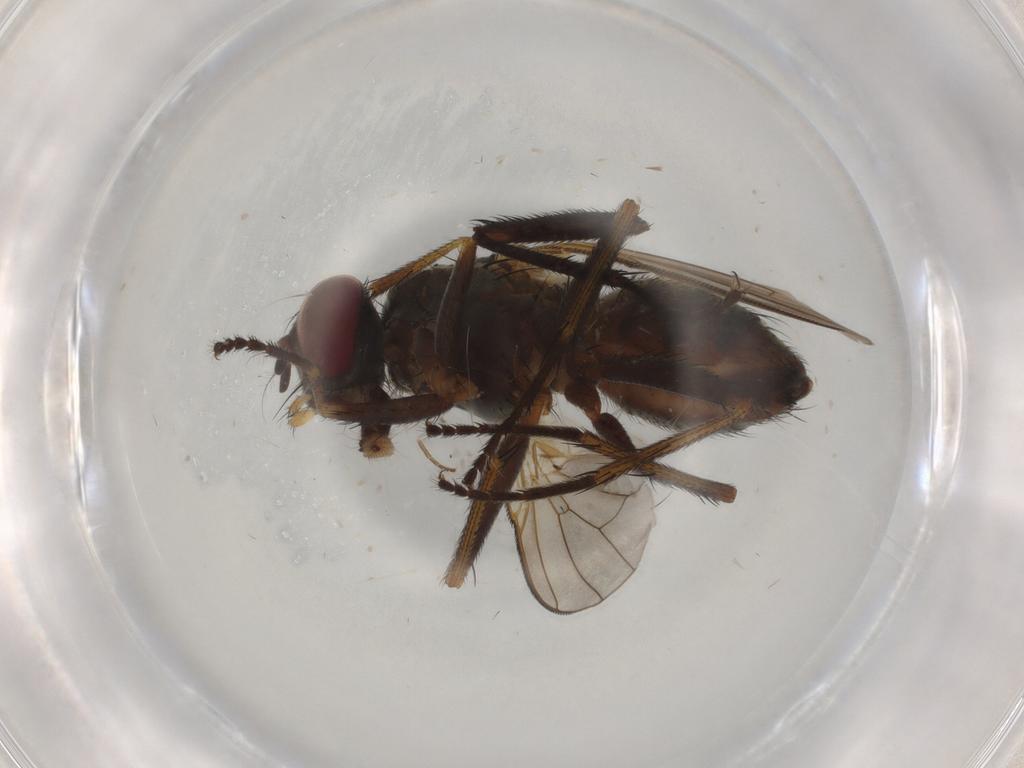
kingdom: Animalia
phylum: Arthropoda
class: Insecta
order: Diptera
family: Muscidae
